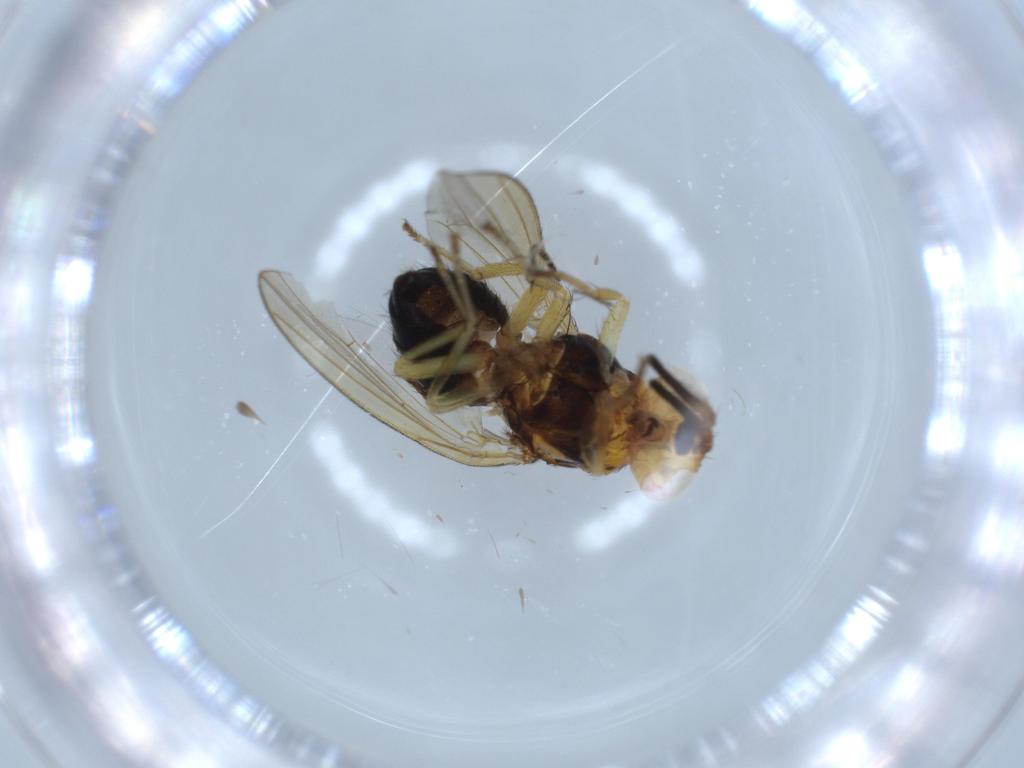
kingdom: Animalia
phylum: Arthropoda
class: Insecta
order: Diptera
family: Lauxaniidae
